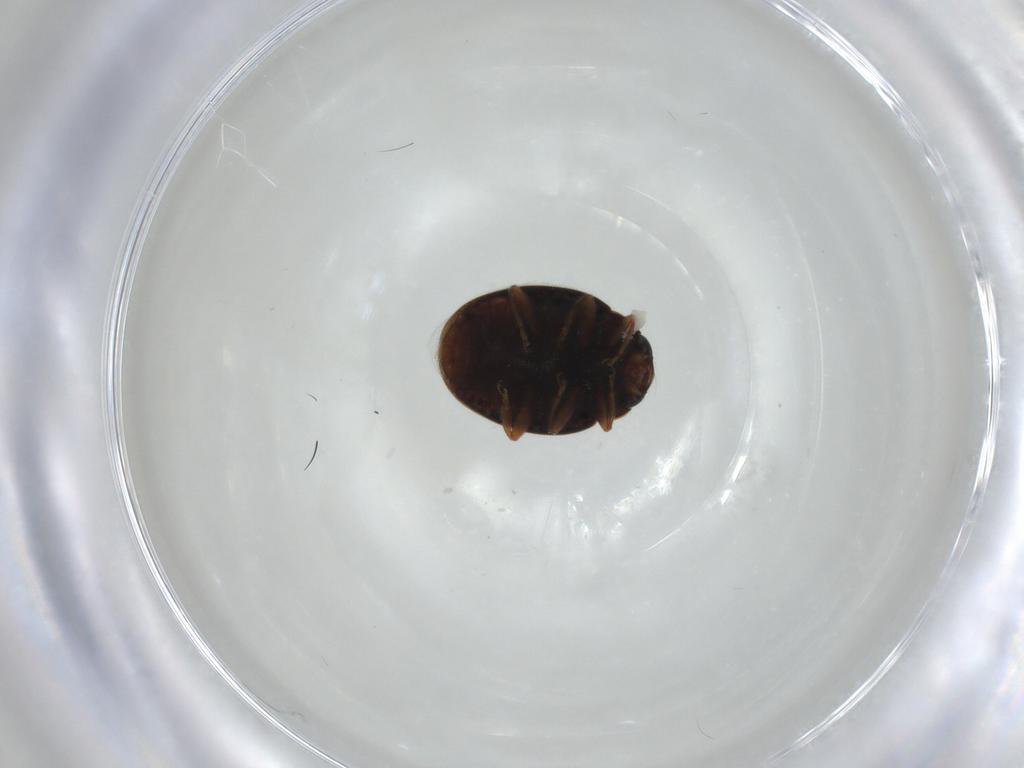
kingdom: Animalia
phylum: Arthropoda
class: Insecta
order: Coleoptera
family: Coccinellidae
